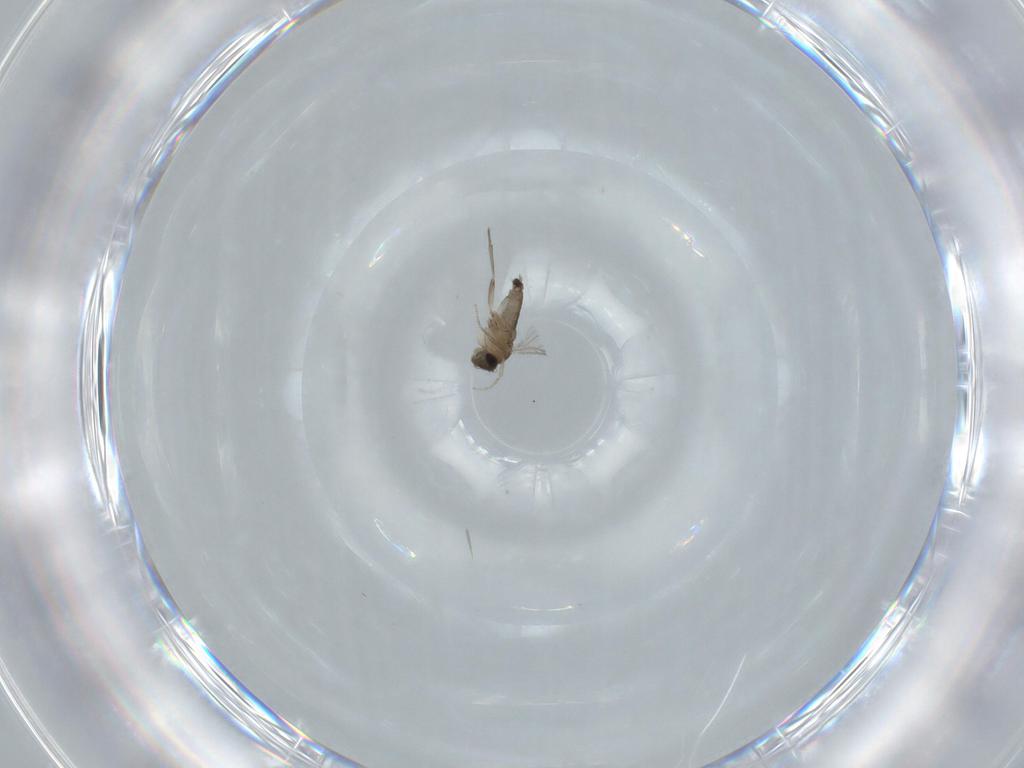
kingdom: Animalia
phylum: Arthropoda
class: Insecta
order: Diptera
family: Phoridae
